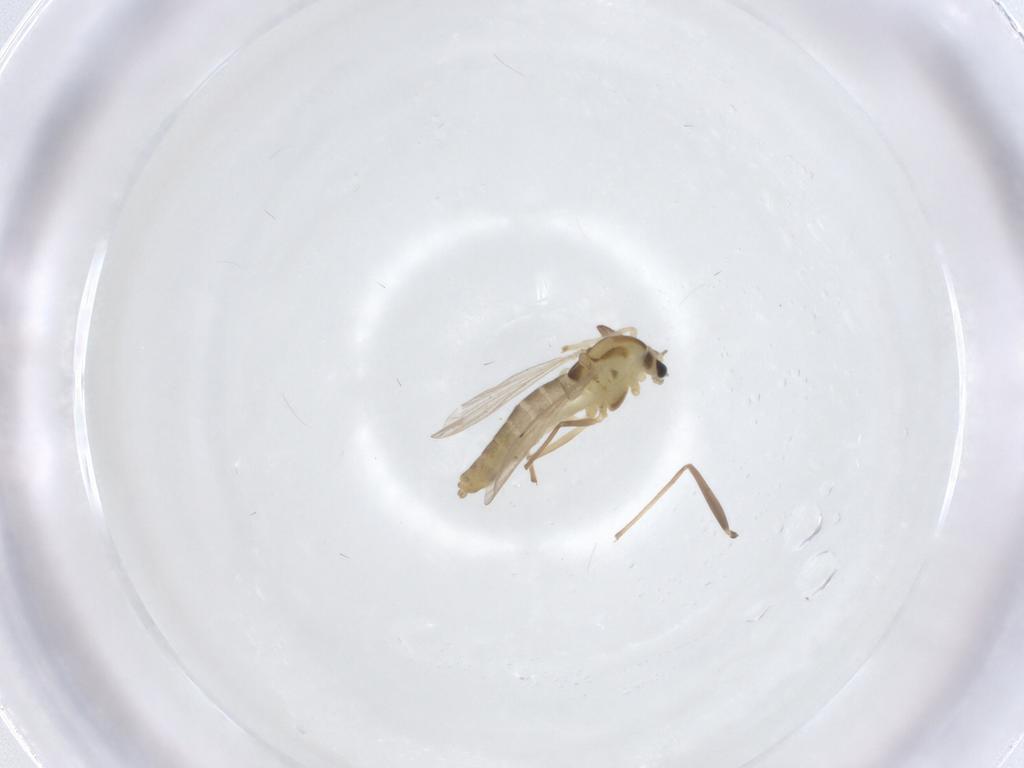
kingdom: Animalia
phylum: Arthropoda
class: Insecta
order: Diptera
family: Chironomidae
